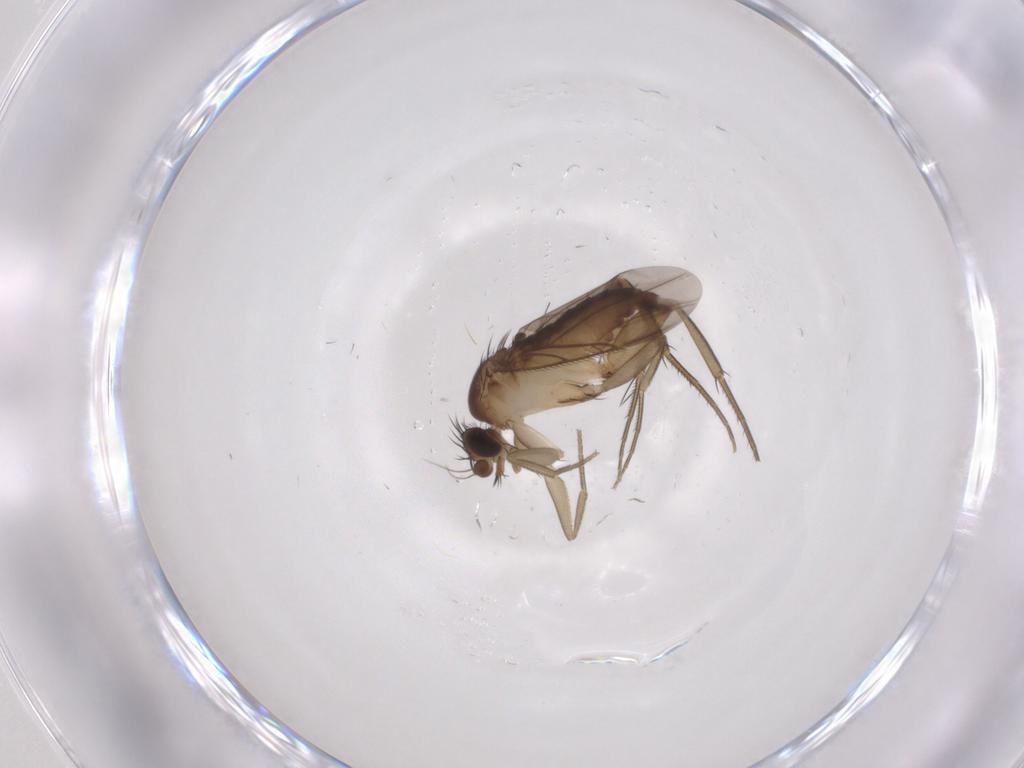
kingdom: Animalia
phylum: Arthropoda
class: Insecta
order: Diptera
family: Phoridae
